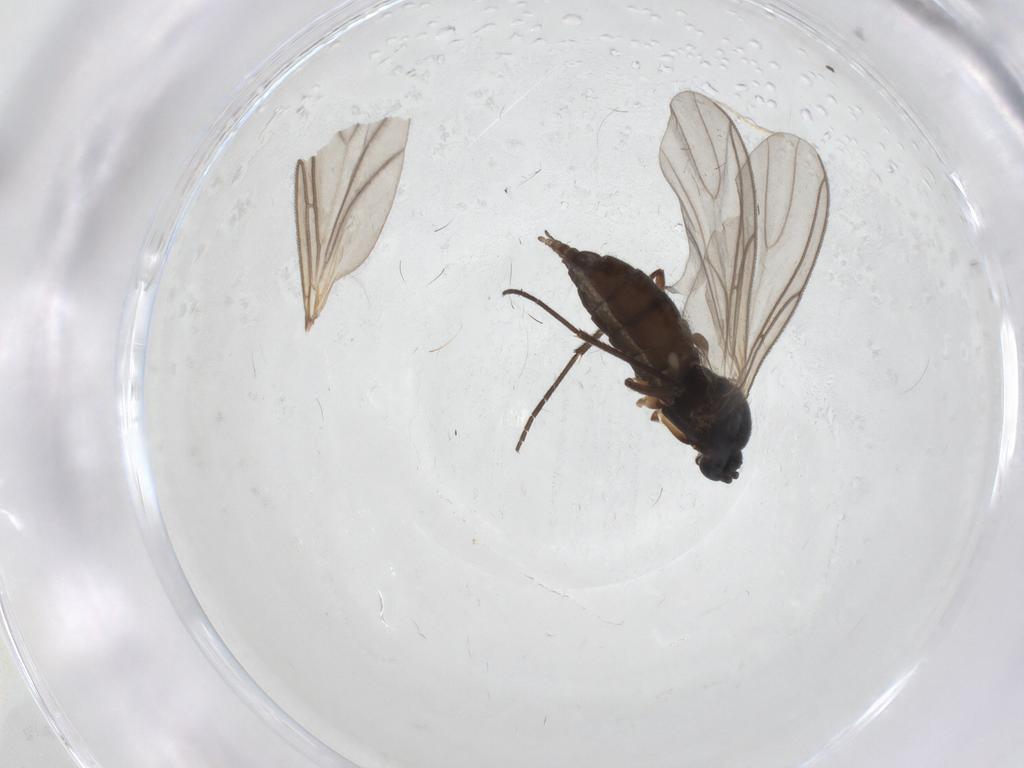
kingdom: Animalia
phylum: Arthropoda
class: Insecta
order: Diptera
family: Sciaridae
